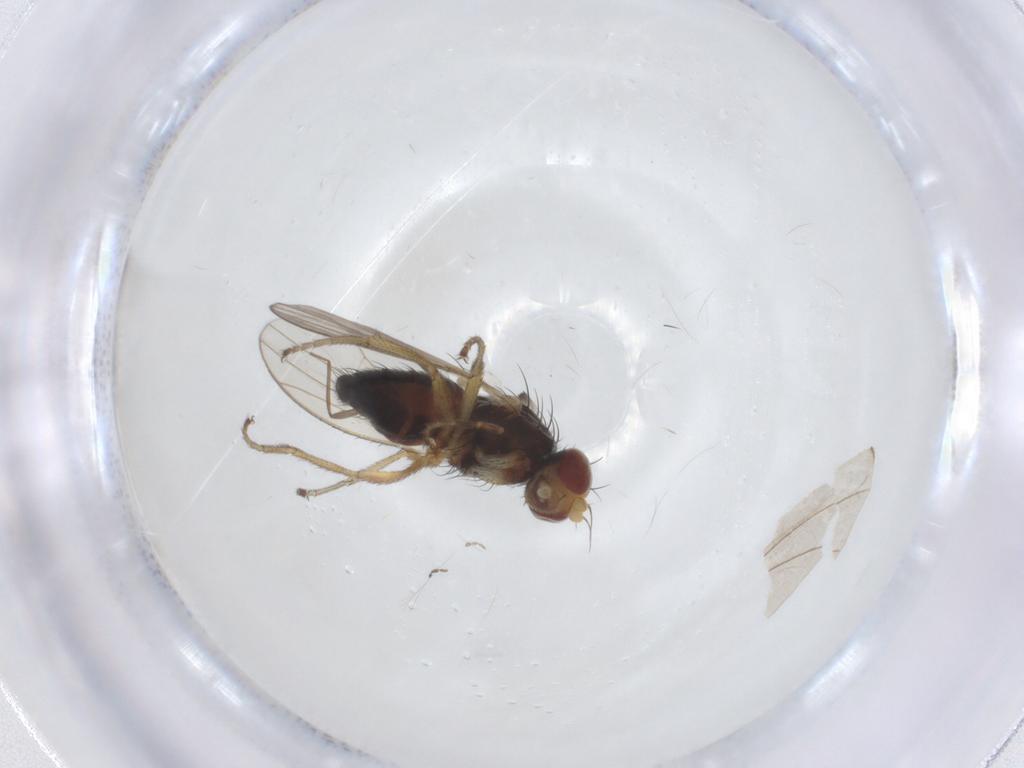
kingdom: Animalia
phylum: Arthropoda
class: Insecta
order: Diptera
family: Heleomyzidae
